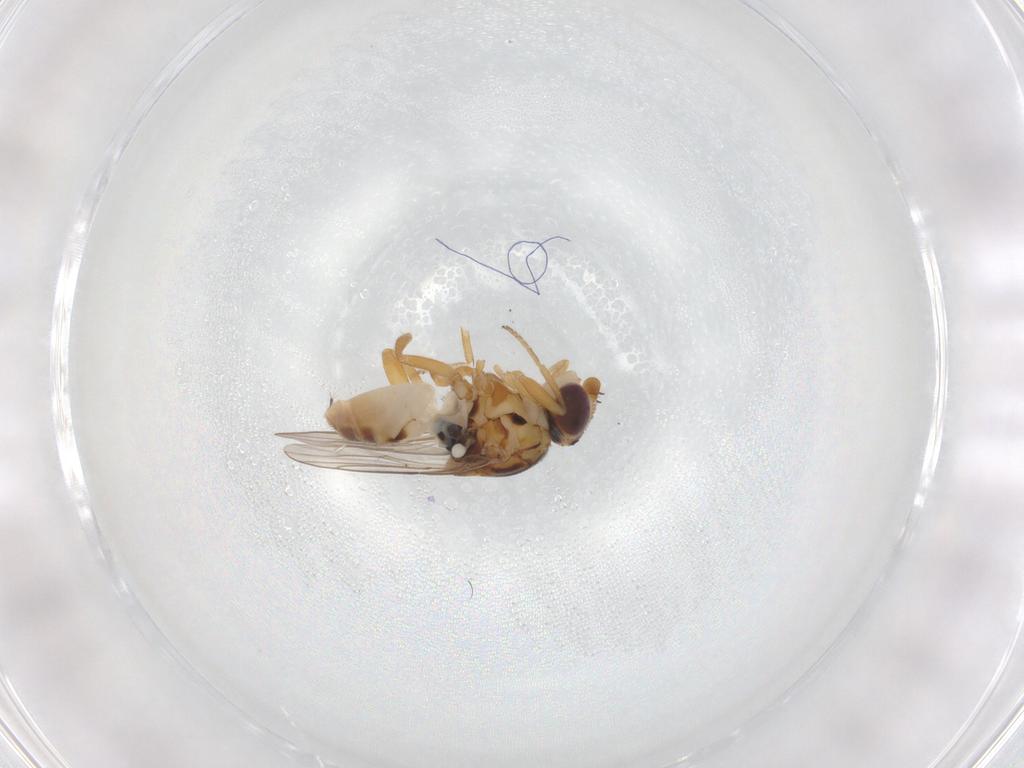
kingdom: Animalia
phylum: Arthropoda
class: Insecta
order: Diptera
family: Chloropidae
